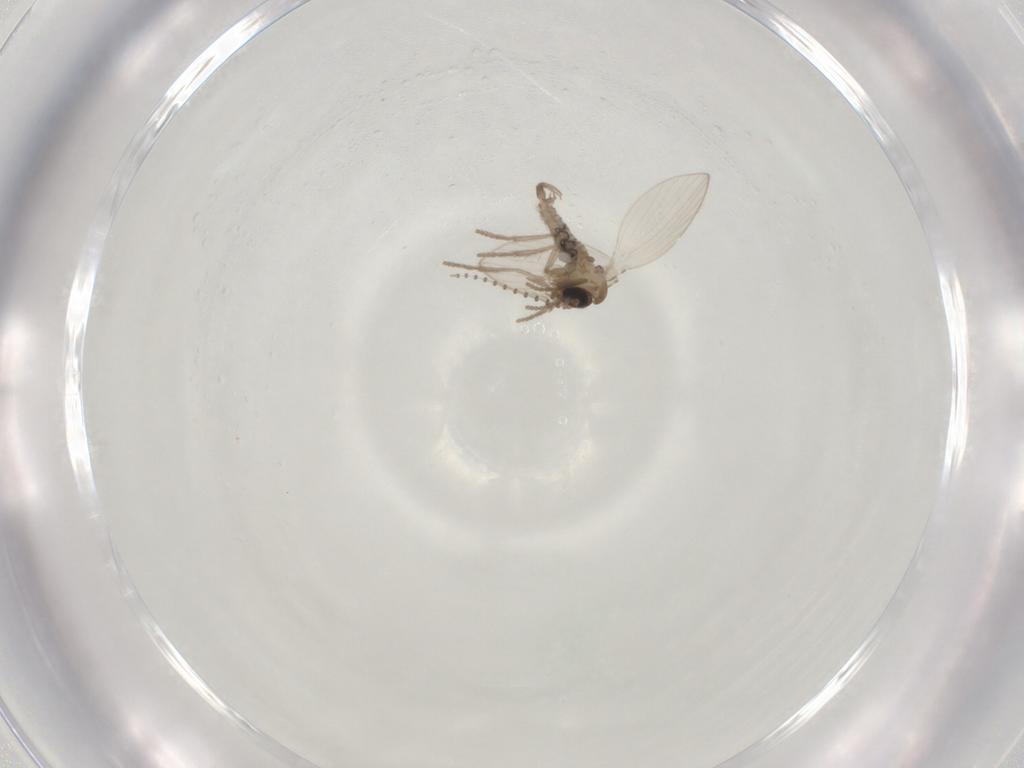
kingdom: Animalia
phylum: Arthropoda
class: Insecta
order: Diptera
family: Psychodidae
